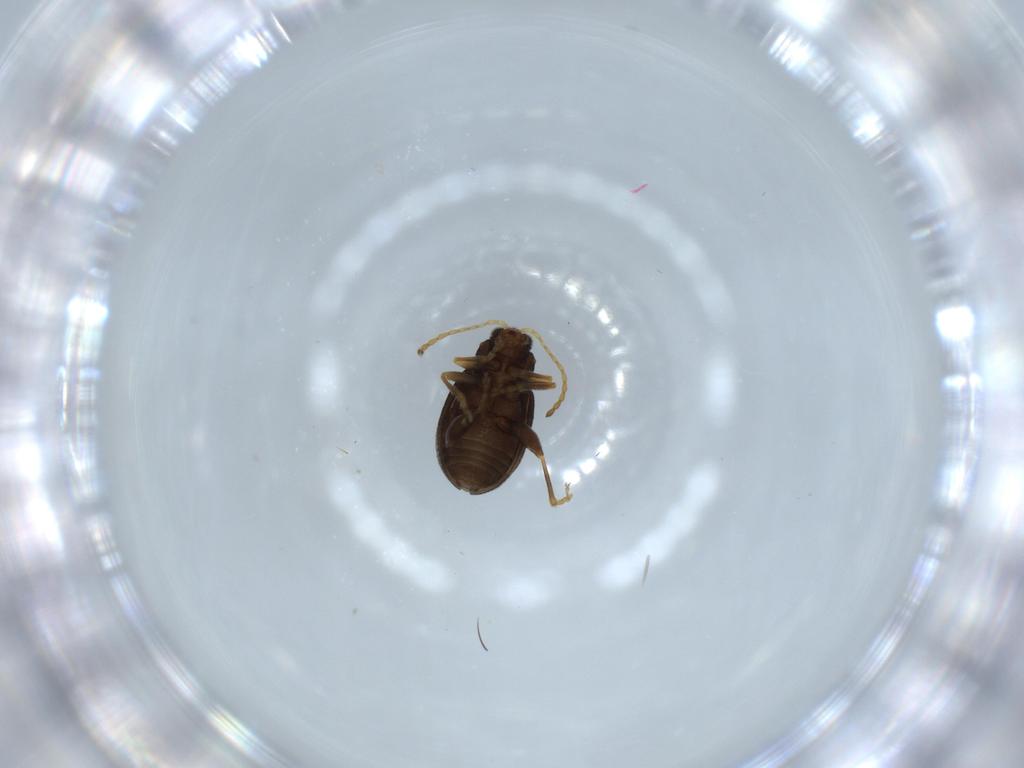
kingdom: Animalia
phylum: Arthropoda
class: Insecta
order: Coleoptera
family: Chrysomelidae
